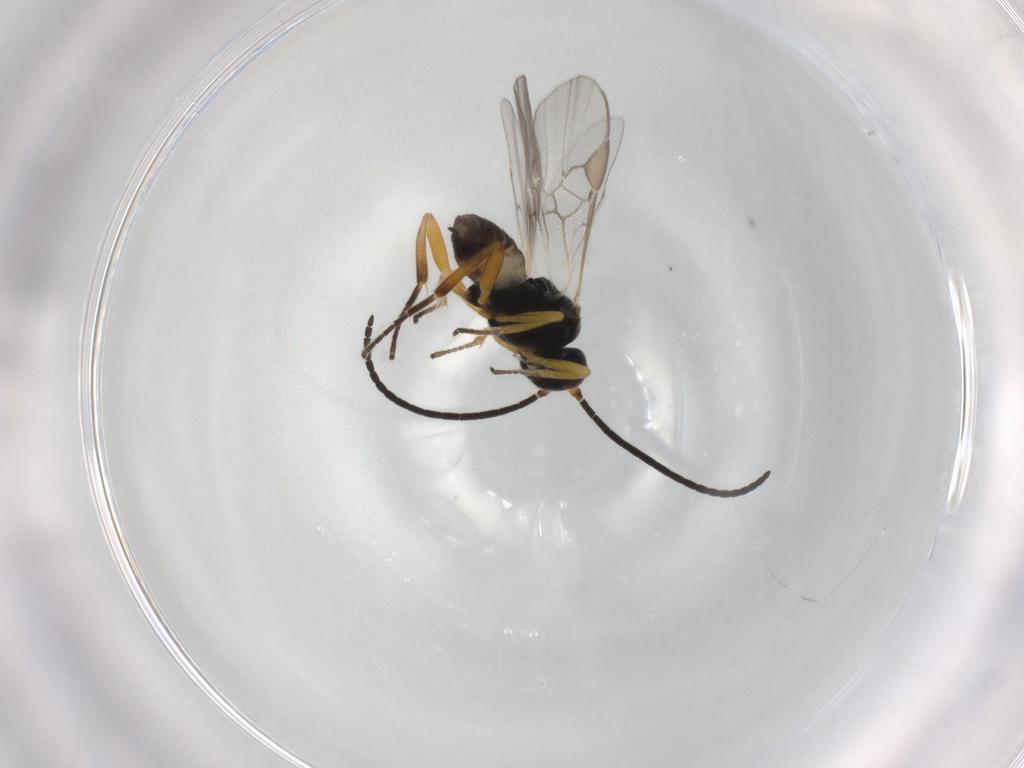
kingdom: Animalia
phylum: Arthropoda
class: Insecta
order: Hymenoptera
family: Braconidae
